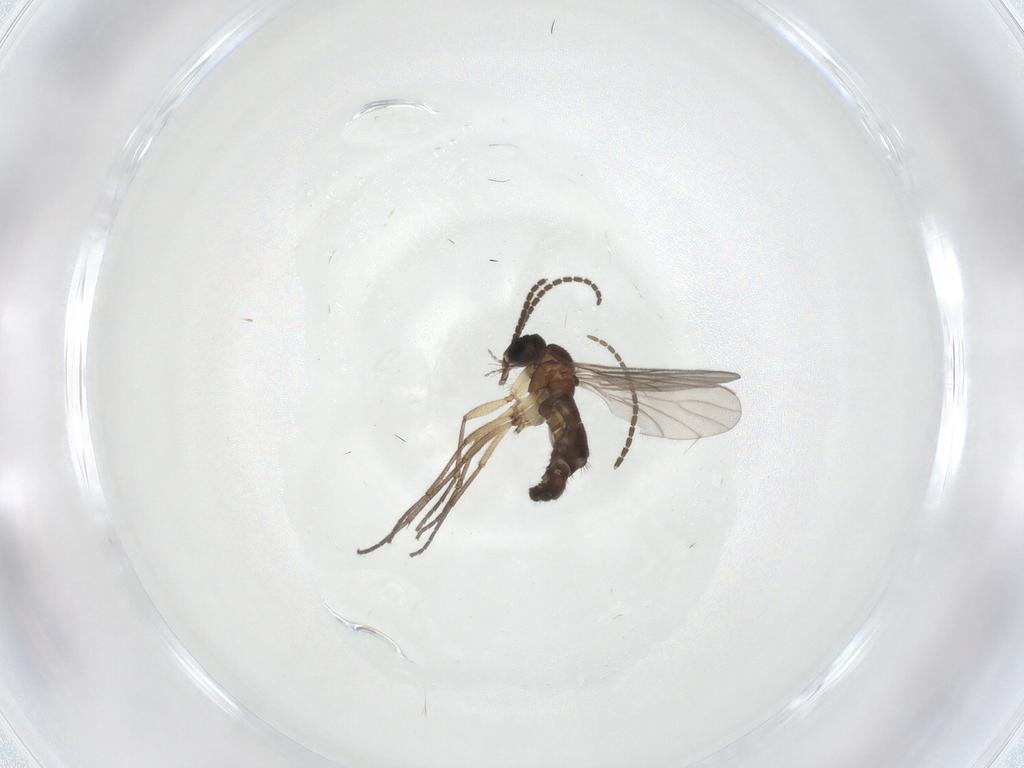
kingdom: Animalia
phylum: Arthropoda
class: Insecta
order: Diptera
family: Sciaridae
